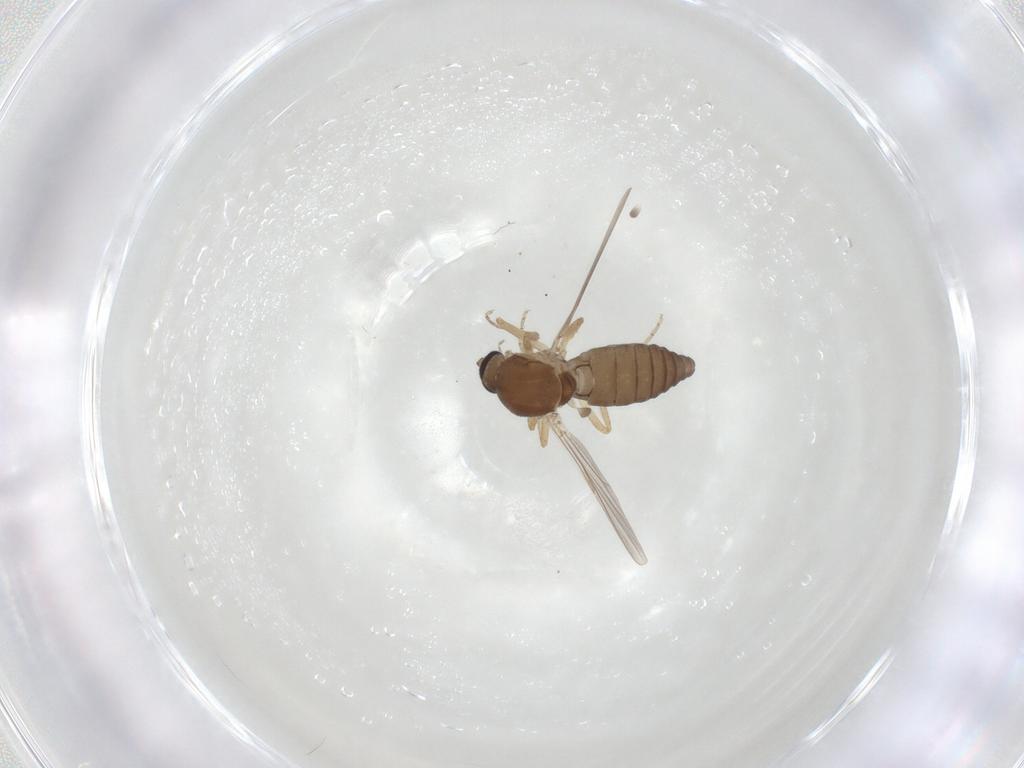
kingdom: Animalia
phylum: Arthropoda
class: Insecta
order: Diptera
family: Ceratopogonidae
